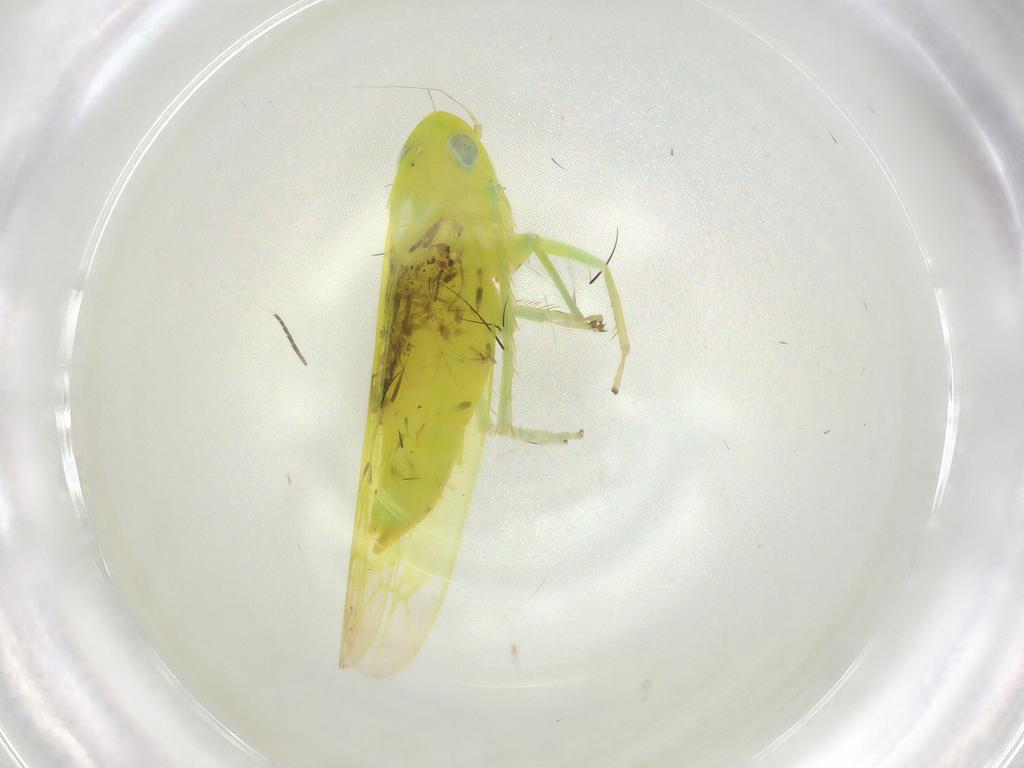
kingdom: Animalia
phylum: Arthropoda
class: Insecta
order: Hemiptera
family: Cicadellidae
